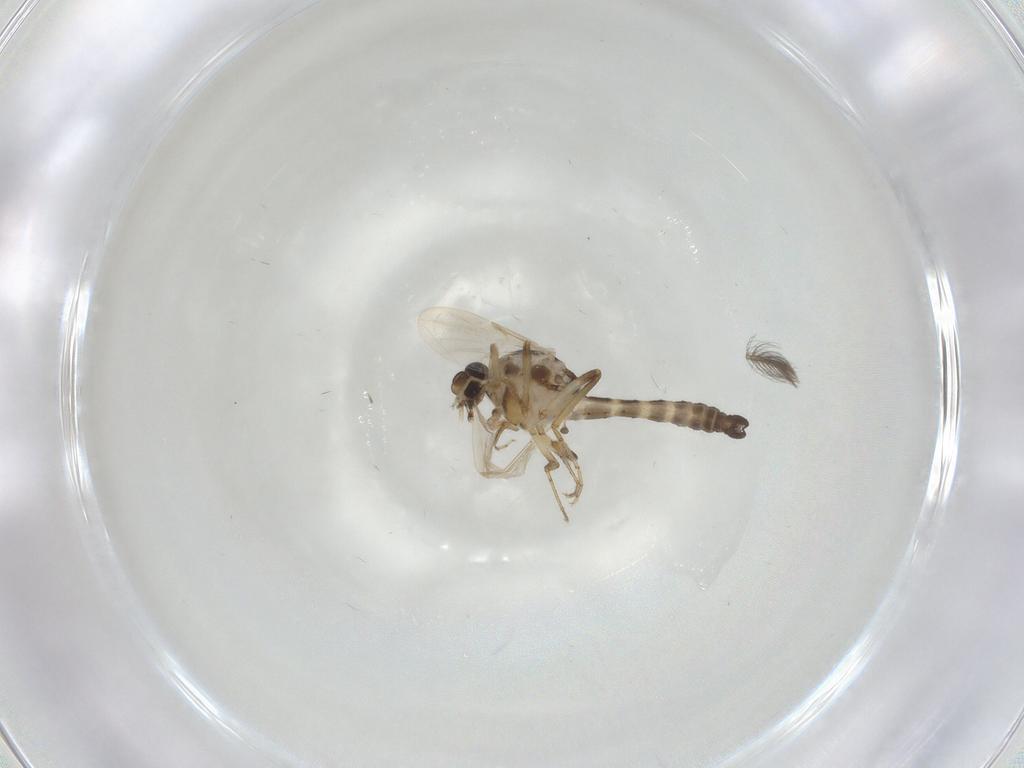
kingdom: Animalia
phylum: Arthropoda
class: Insecta
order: Diptera
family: Ceratopogonidae
